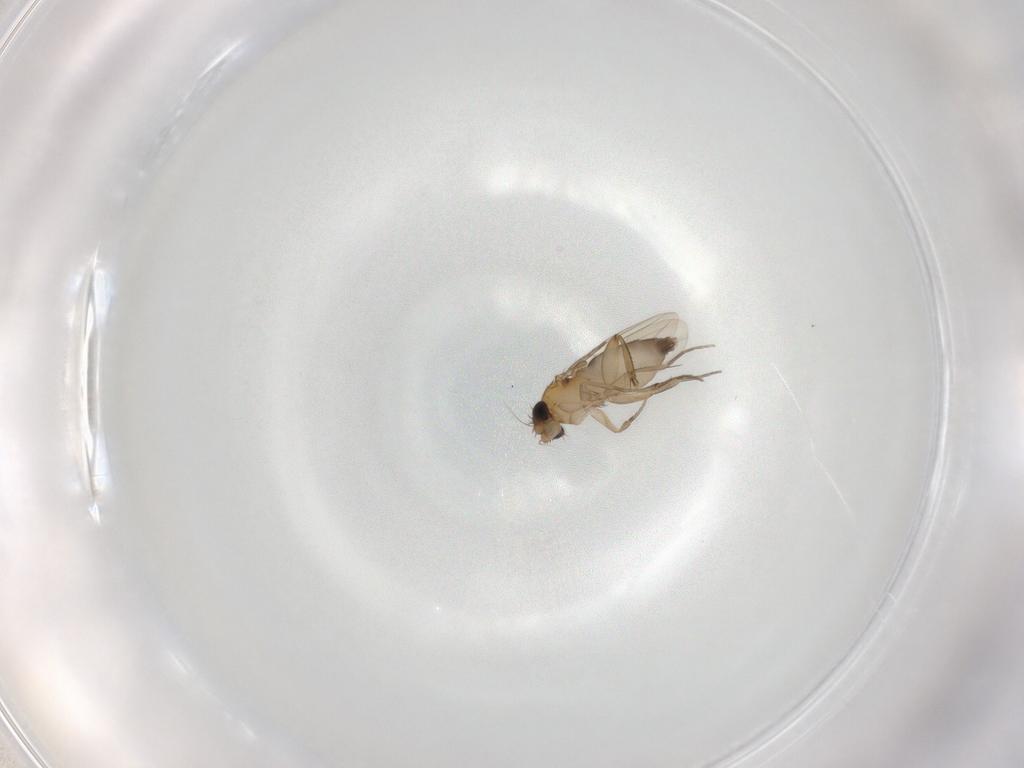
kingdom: Animalia
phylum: Arthropoda
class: Insecta
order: Diptera
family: Phoridae
